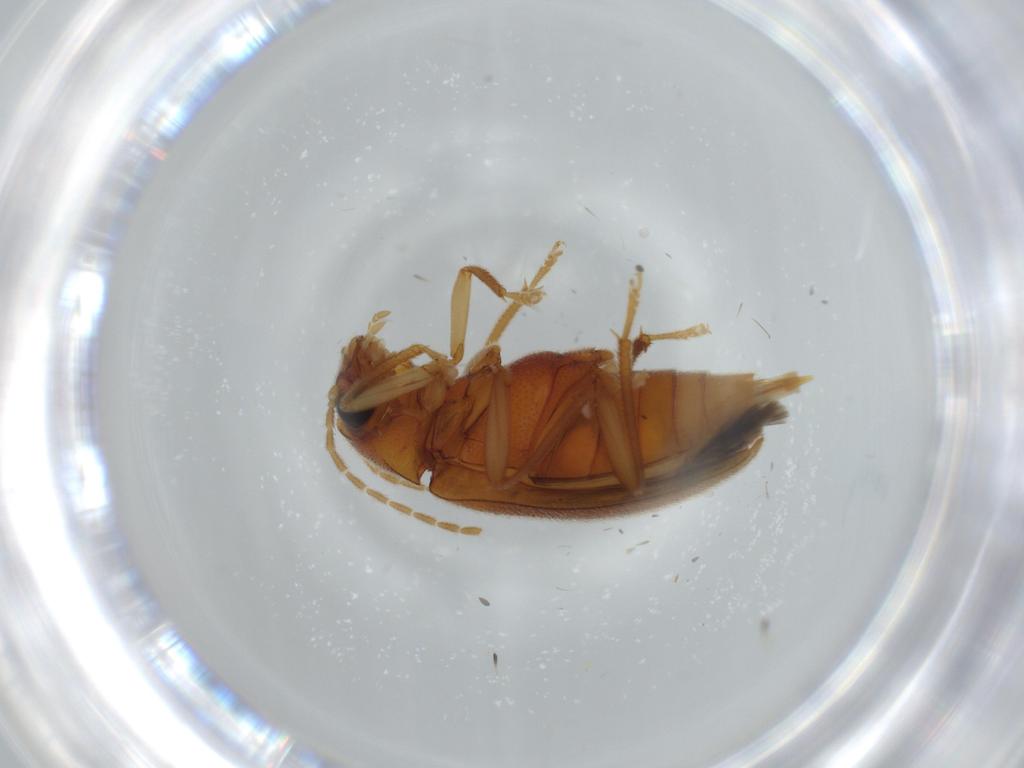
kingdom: Animalia
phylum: Arthropoda
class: Insecta
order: Coleoptera
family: Ptilodactylidae
